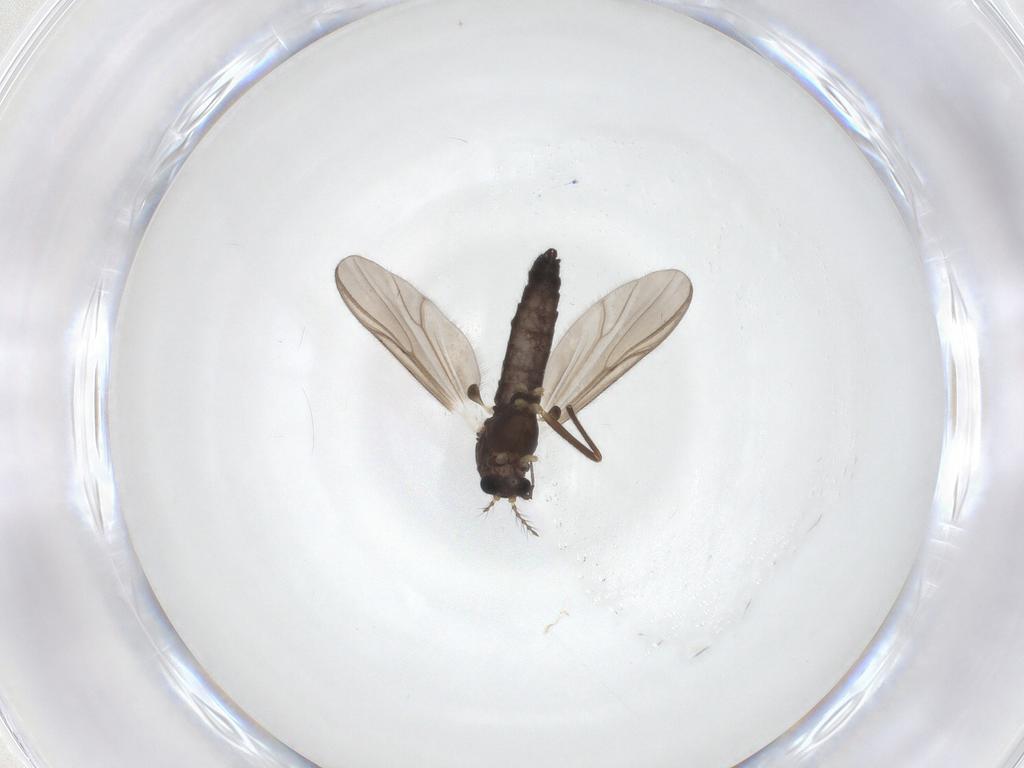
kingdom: Animalia
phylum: Arthropoda
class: Insecta
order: Diptera
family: Chironomidae
